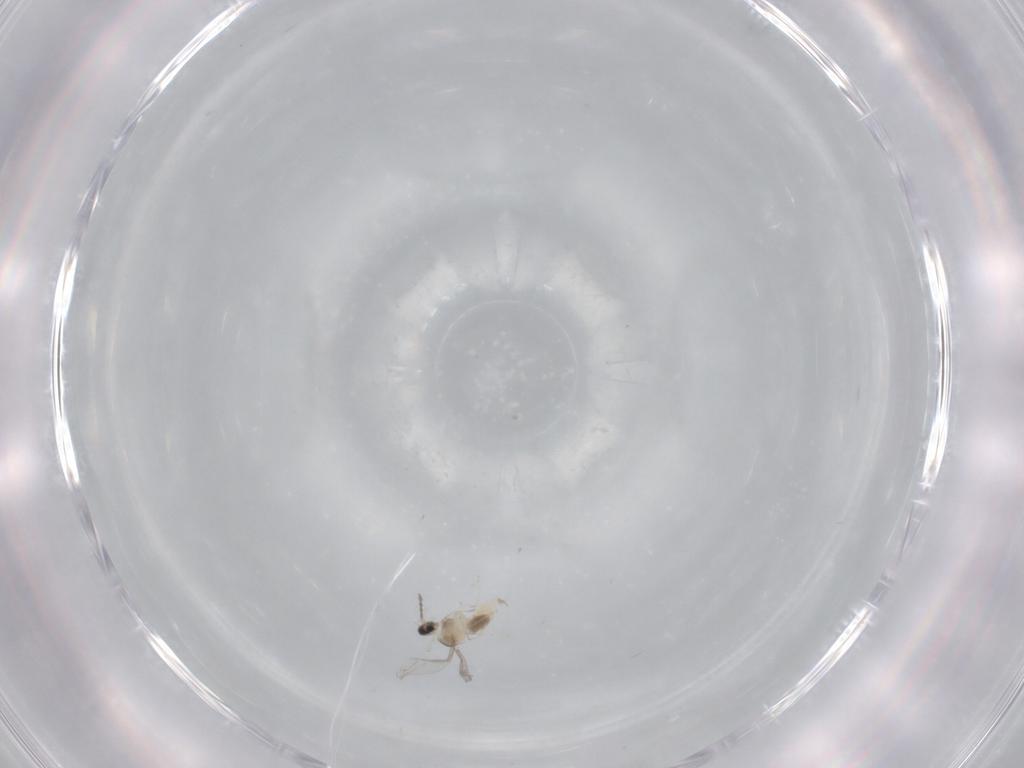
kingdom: Animalia
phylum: Arthropoda
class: Insecta
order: Diptera
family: Cecidomyiidae
